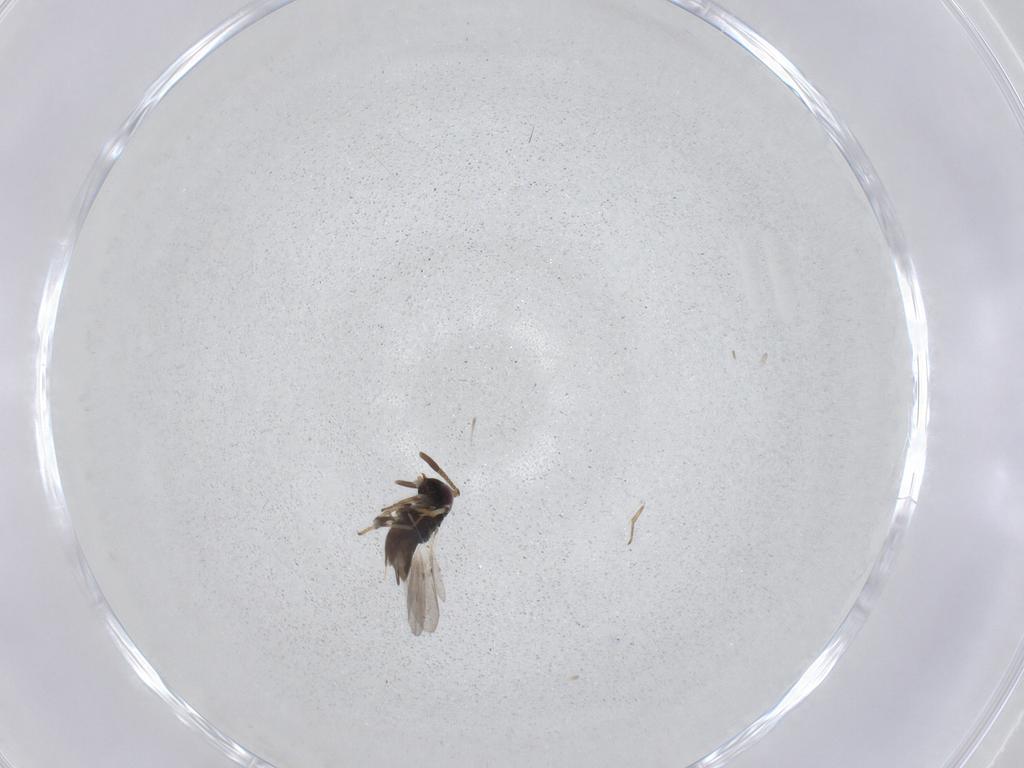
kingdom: Animalia
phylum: Arthropoda
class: Insecta
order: Hymenoptera
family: Encyrtidae
